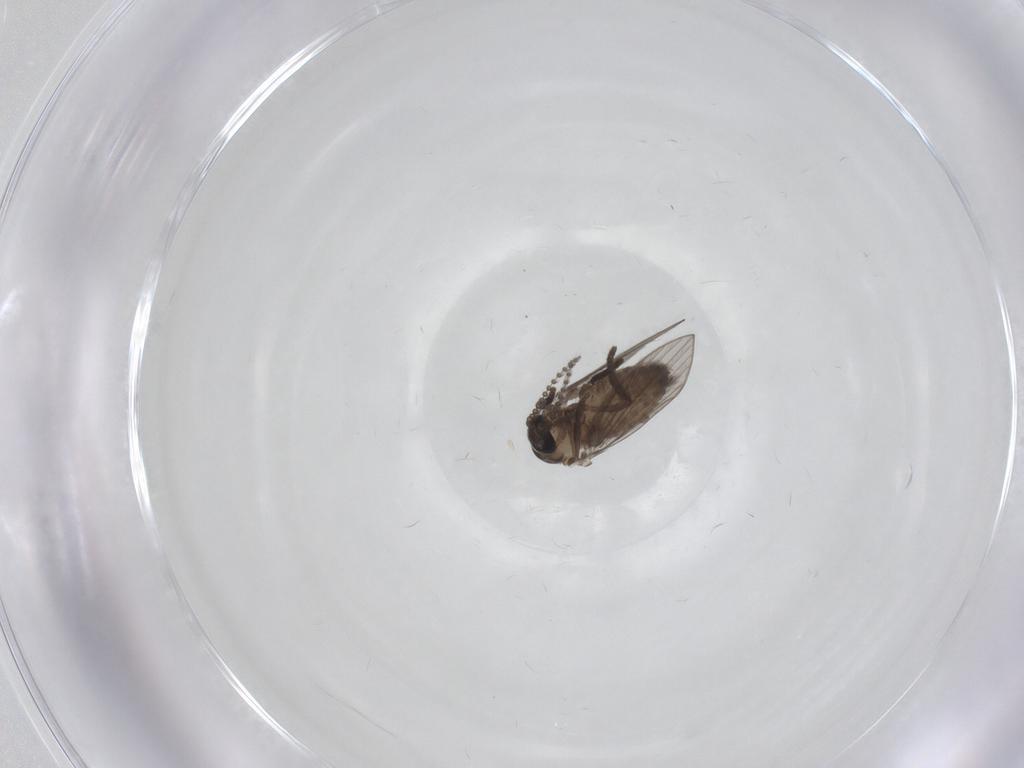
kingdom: Animalia
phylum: Arthropoda
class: Insecta
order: Diptera
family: Psychodidae
